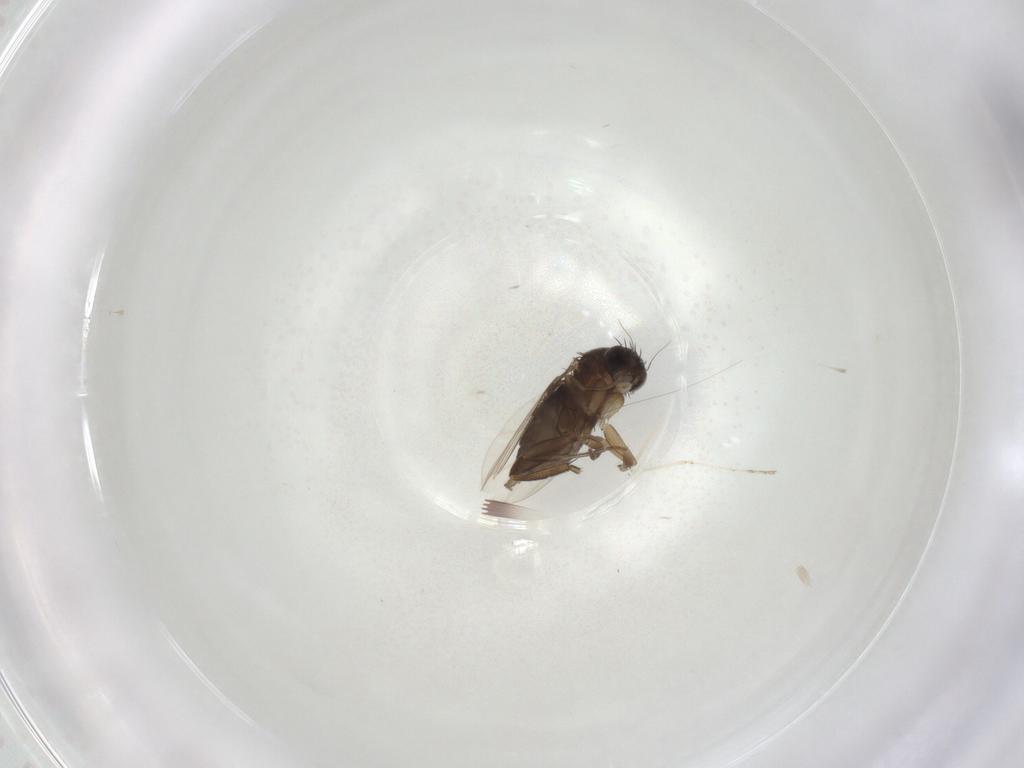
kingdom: Animalia
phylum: Arthropoda
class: Insecta
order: Diptera
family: Phoridae
